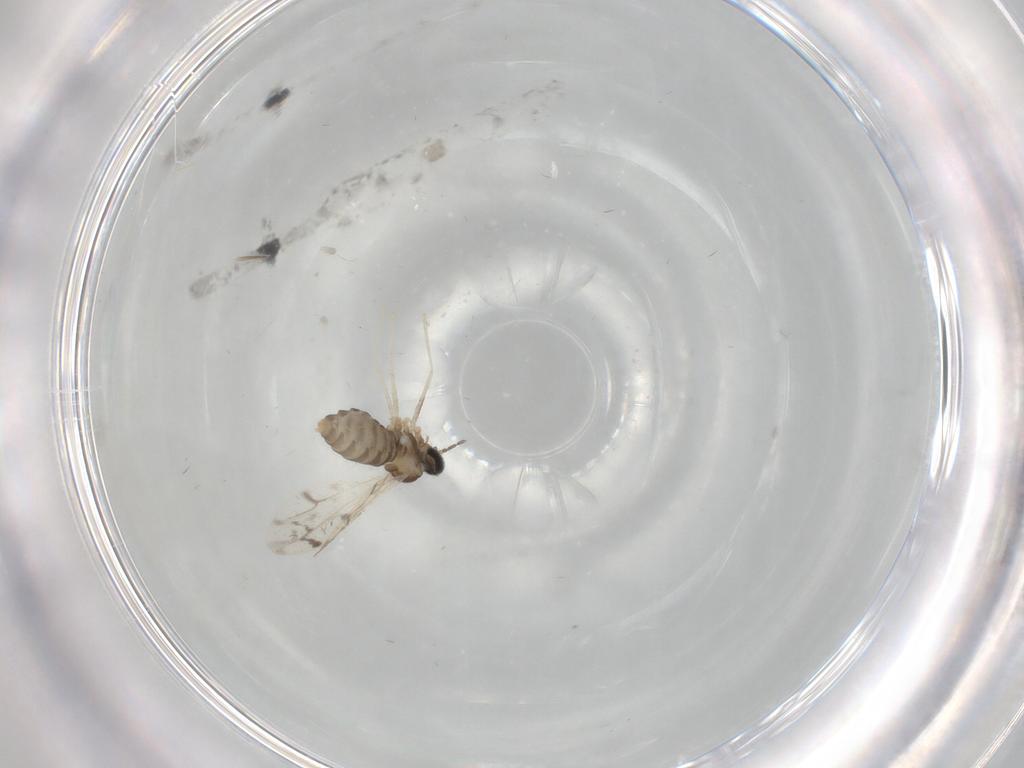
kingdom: Animalia
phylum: Arthropoda
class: Insecta
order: Diptera
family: Cecidomyiidae
